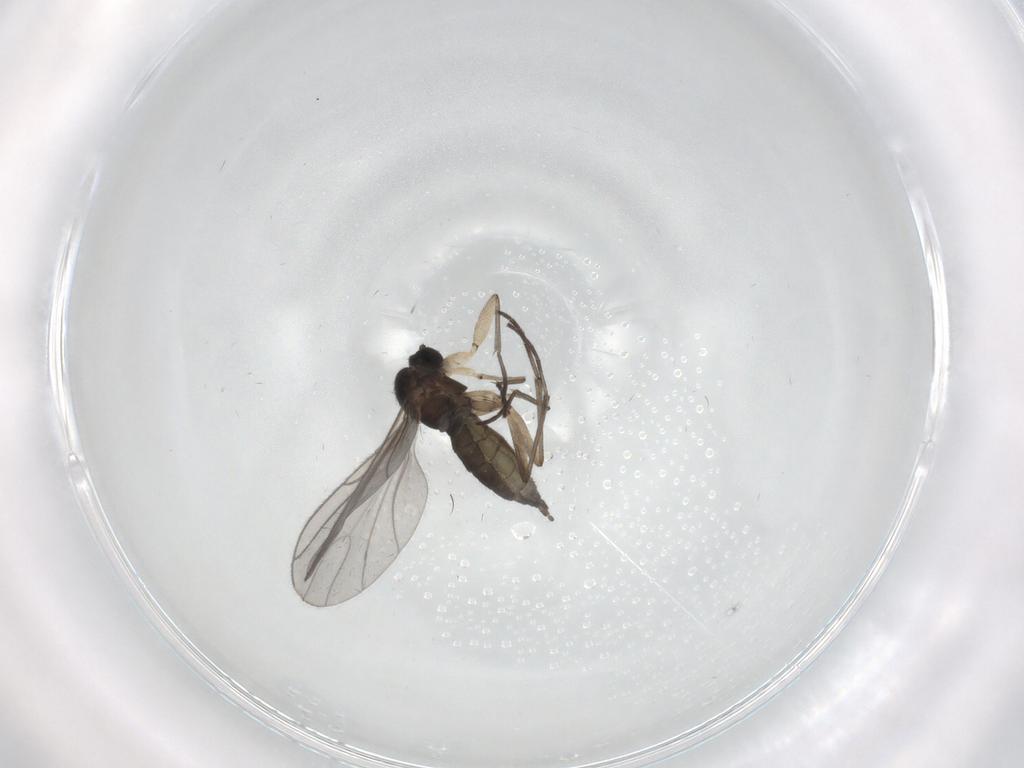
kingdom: Animalia
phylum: Arthropoda
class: Insecta
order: Diptera
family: Sciaridae
